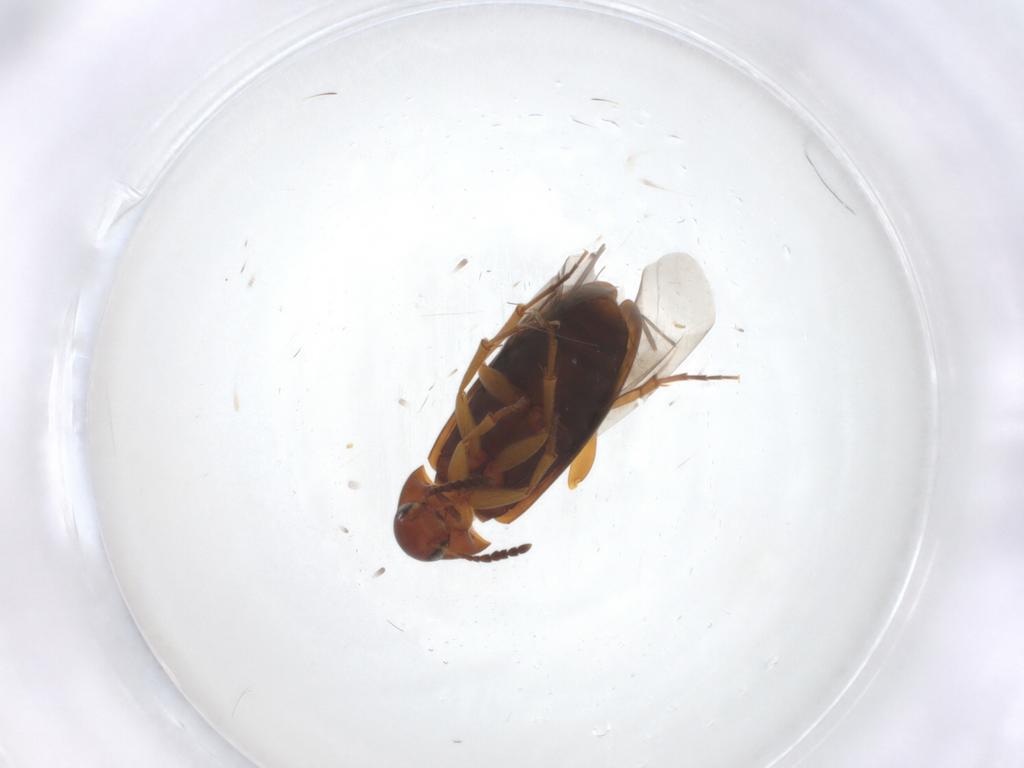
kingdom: Animalia
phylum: Arthropoda
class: Insecta
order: Coleoptera
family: Scraptiidae
